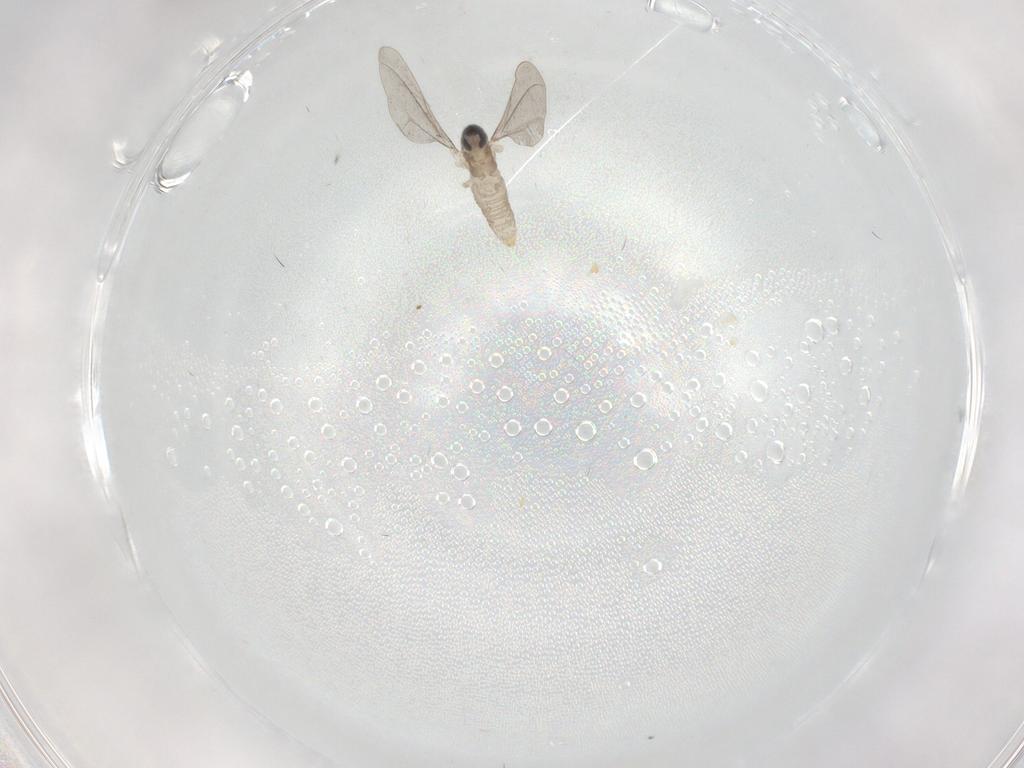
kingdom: Animalia
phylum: Arthropoda
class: Insecta
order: Diptera
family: Cecidomyiidae
